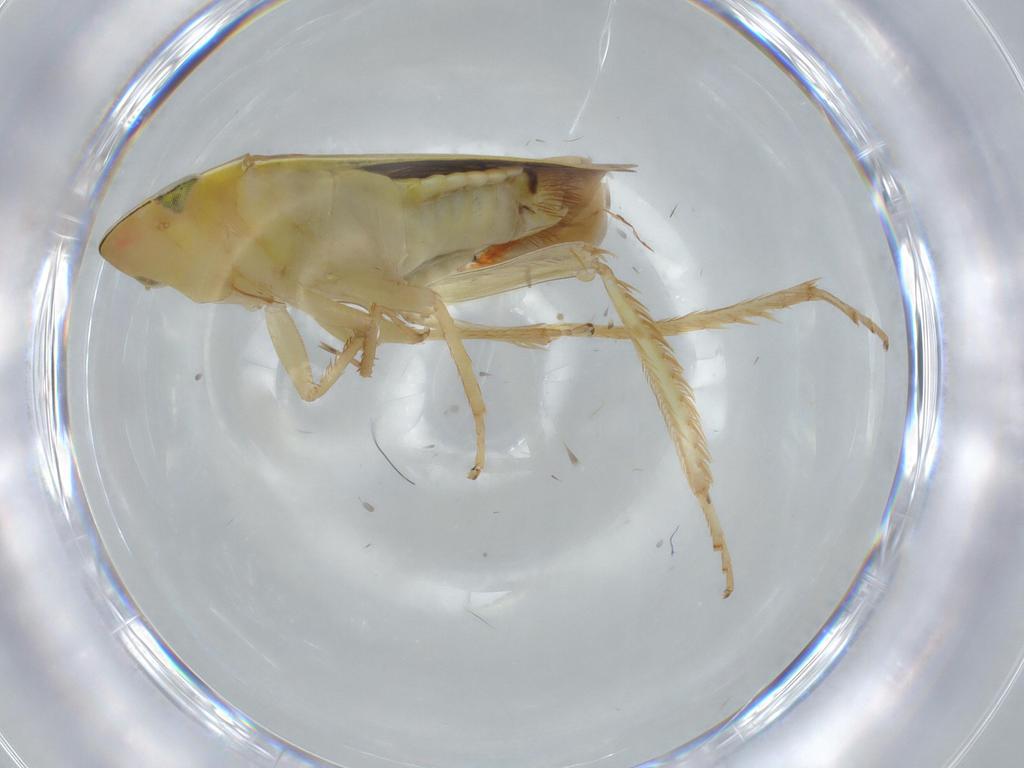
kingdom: Animalia
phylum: Arthropoda
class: Insecta
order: Hemiptera
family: Cicadellidae
